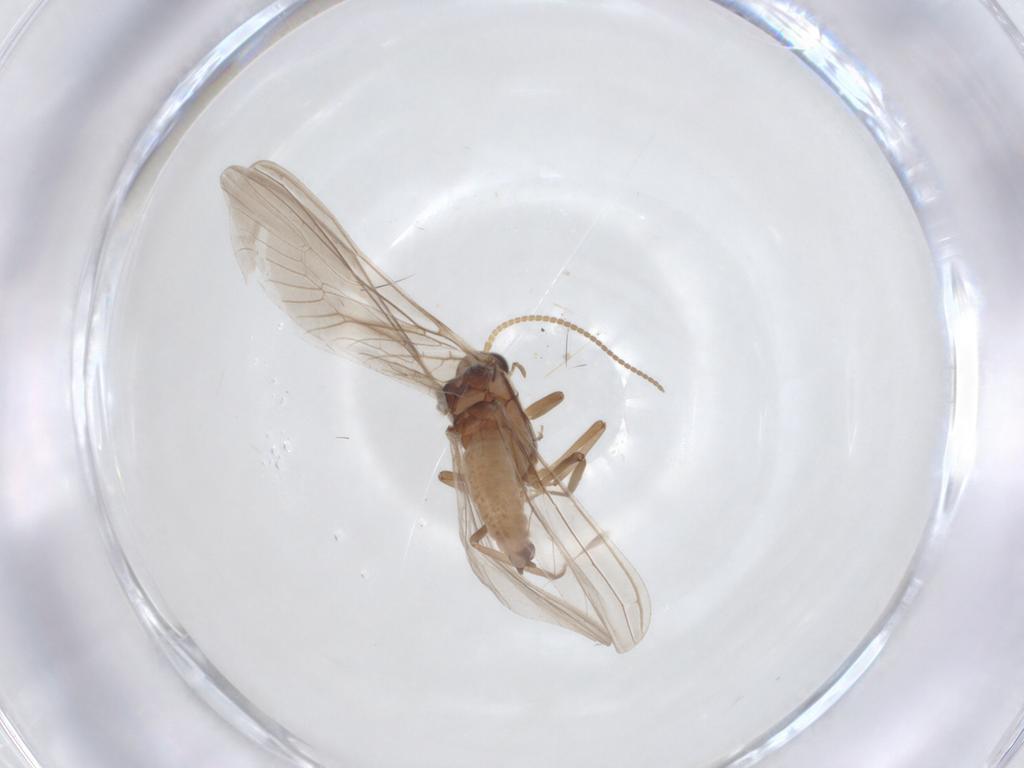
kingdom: Animalia
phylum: Arthropoda
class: Insecta
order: Neuroptera
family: Coniopterygidae
